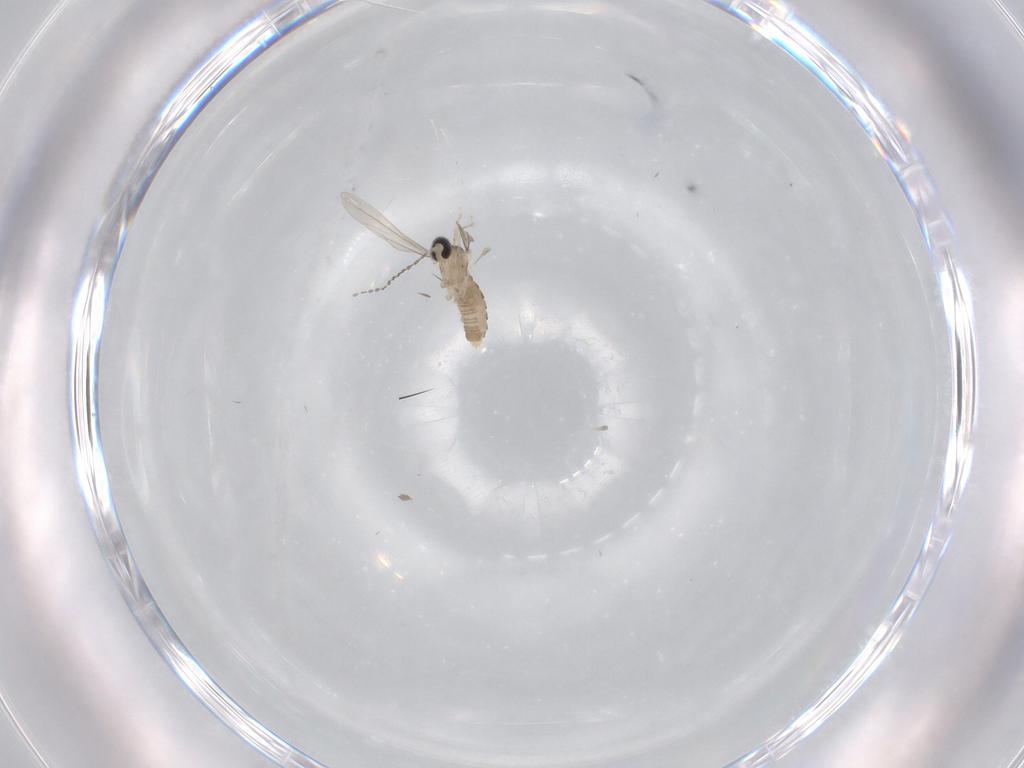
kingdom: Animalia
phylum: Arthropoda
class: Insecta
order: Diptera
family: Cecidomyiidae
